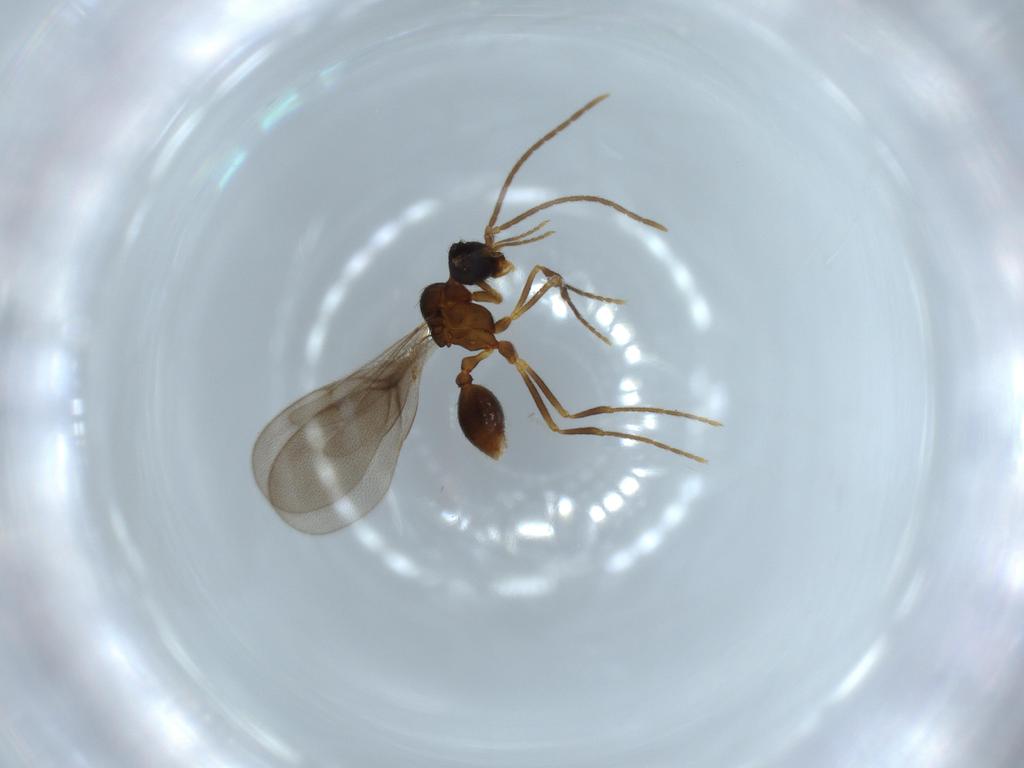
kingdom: Animalia
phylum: Arthropoda
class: Insecta
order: Hymenoptera
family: Formicidae
